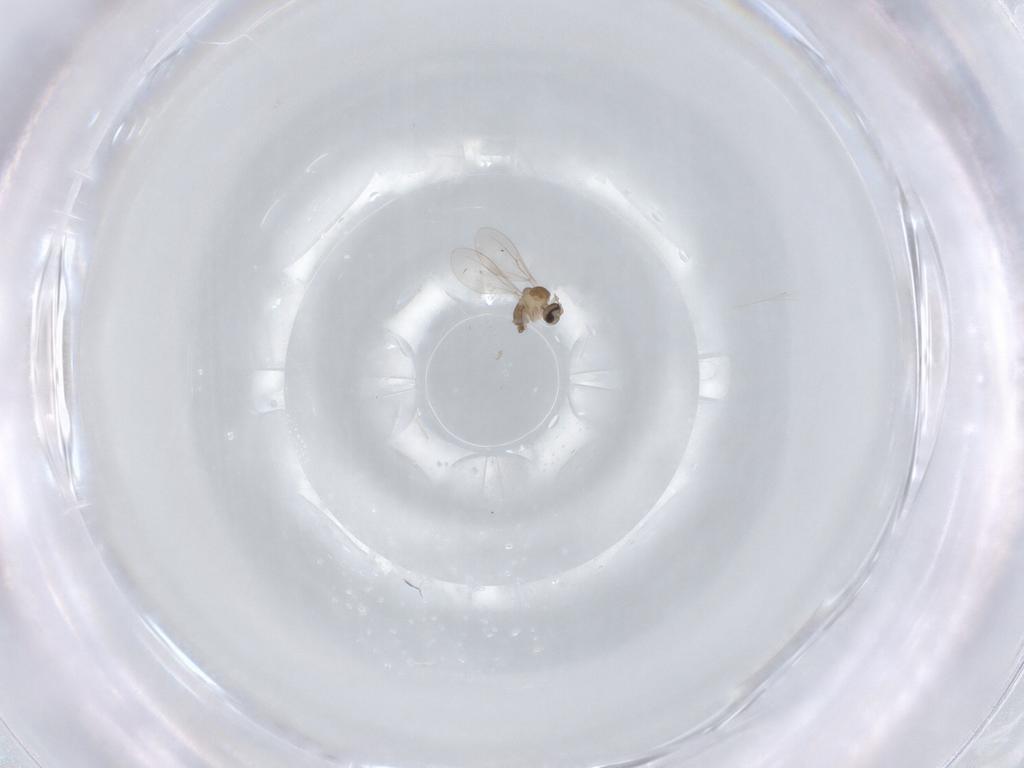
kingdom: Animalia
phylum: Arthropoda
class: Insecta
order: Diptera
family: Cecidomyiidae
